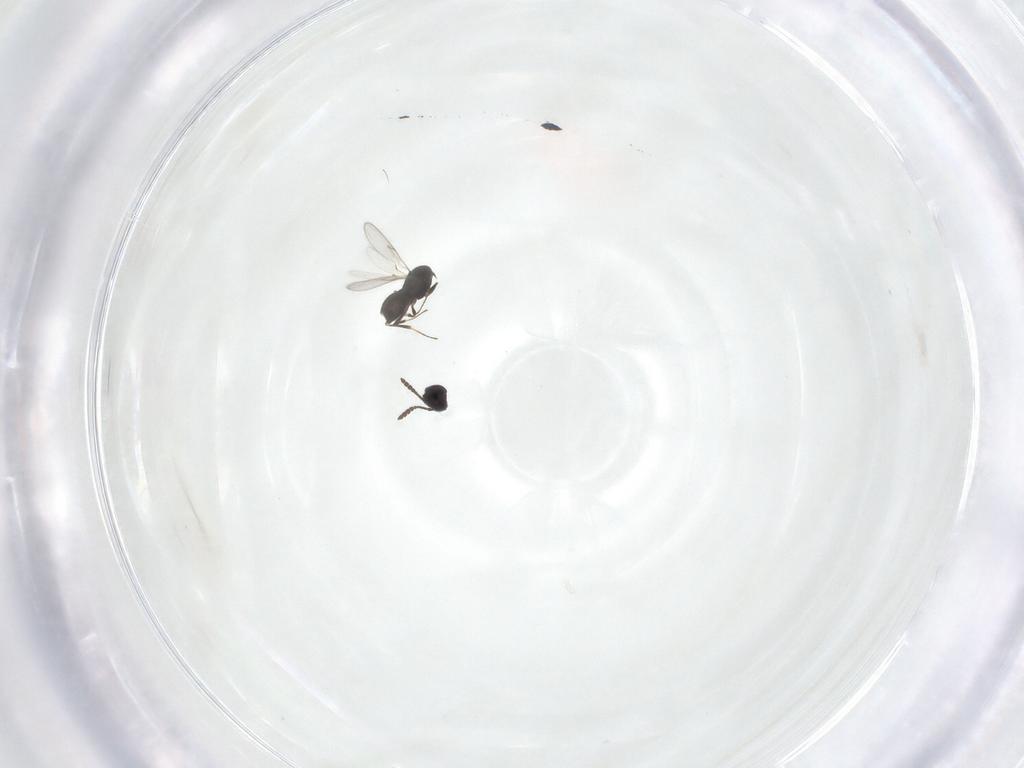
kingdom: Animalia
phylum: Arthropoda
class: Insecta
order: Hymenoptera
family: Scelionidae
